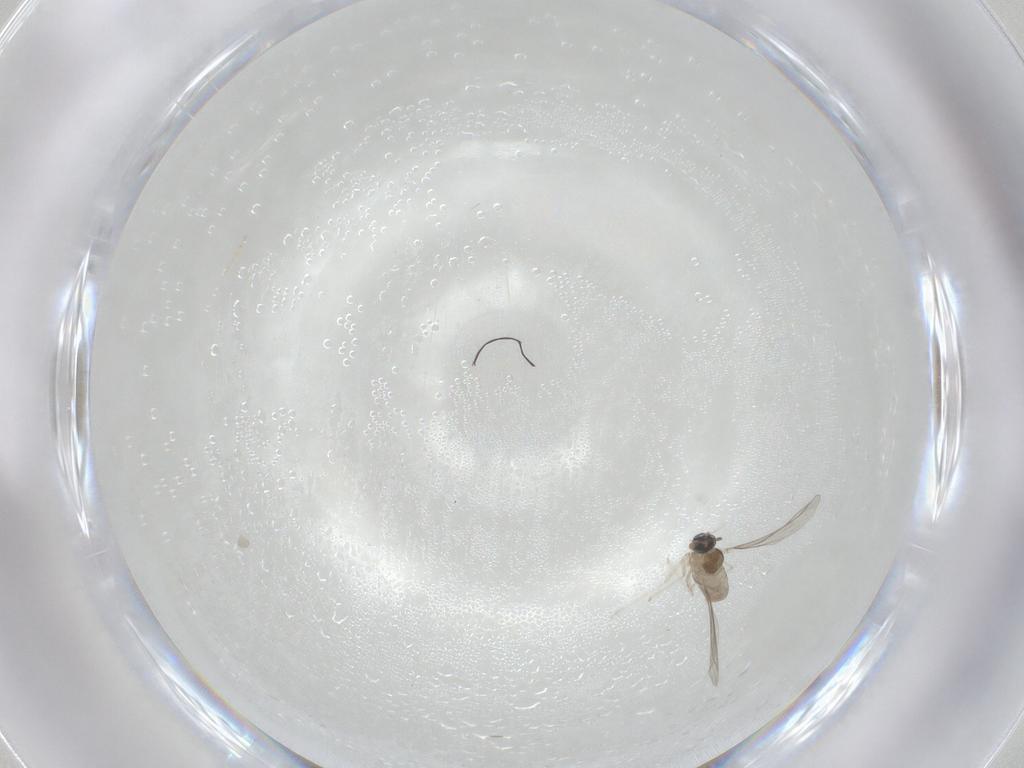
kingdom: Animalia
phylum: Arthropoda
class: Insecta
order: Diptera
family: Cecidomyiidae
